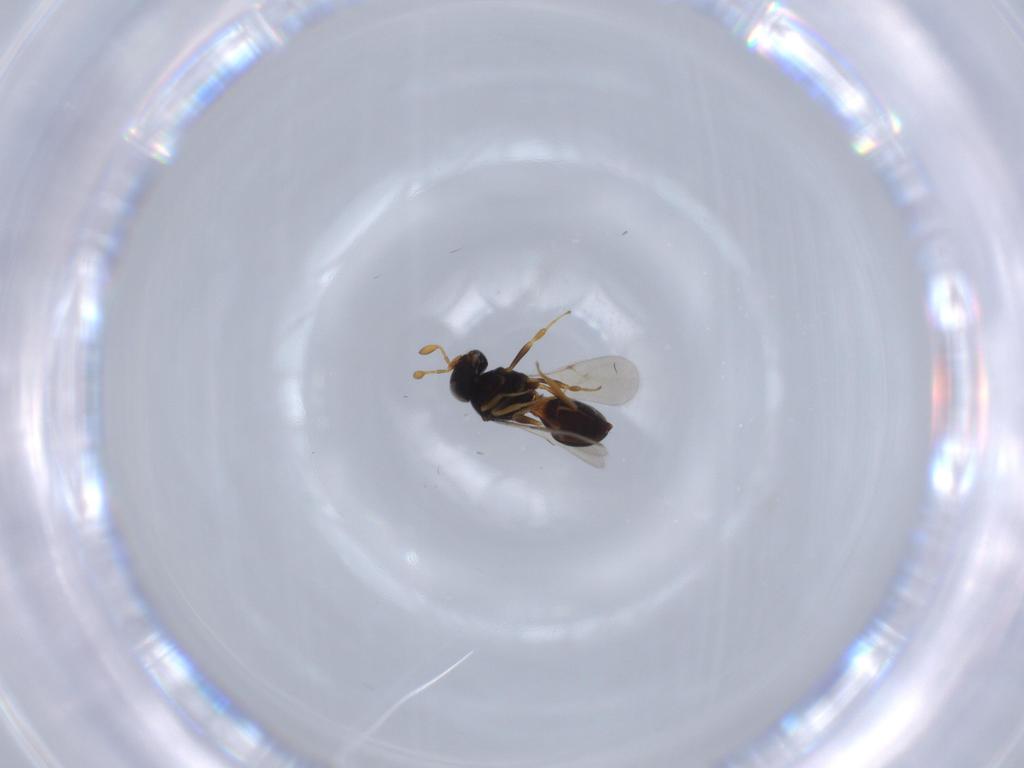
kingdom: Animalia
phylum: Arthropoda
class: Insecta
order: Hymenoptera
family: Scelionidae
